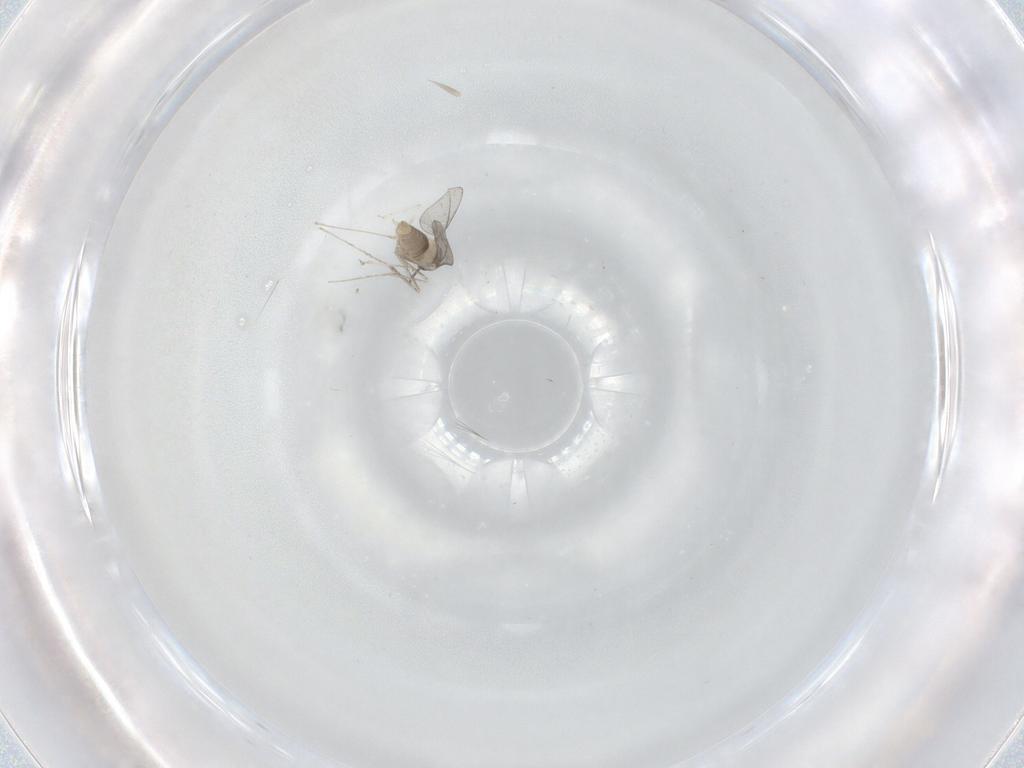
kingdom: Animalia
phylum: Arthropoda
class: Insecta
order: Diptera
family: Cecidomyiidae
